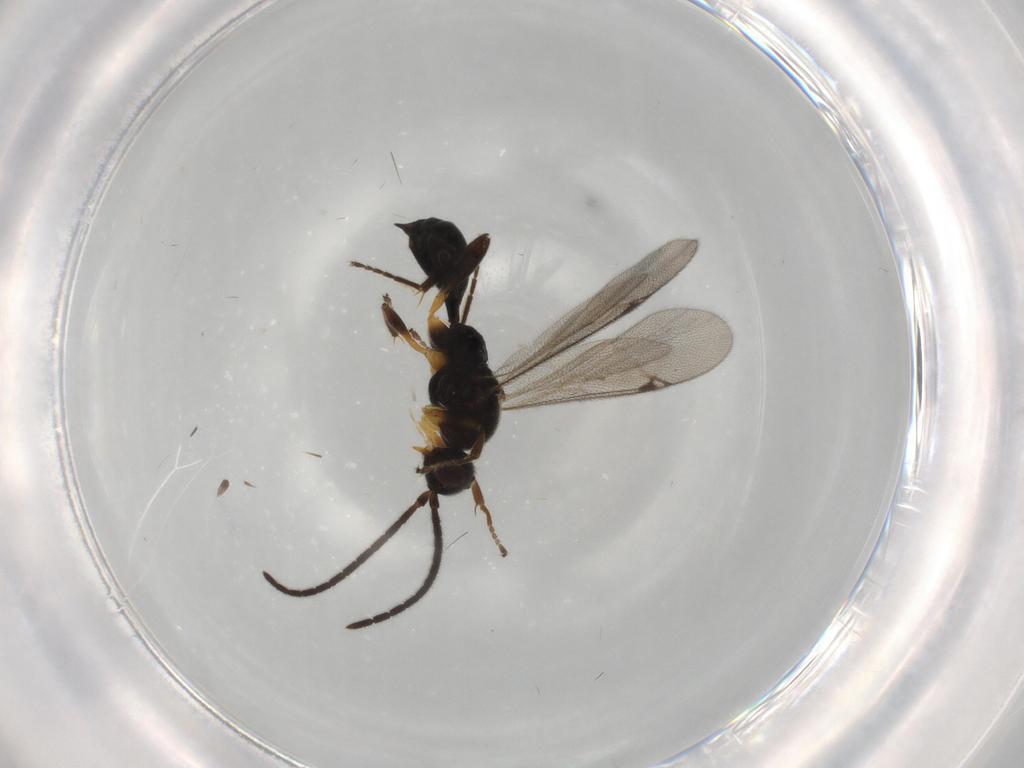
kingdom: Animalia
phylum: Arthropoda
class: Insecta
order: Hymenoptera
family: Proctotrupidae
